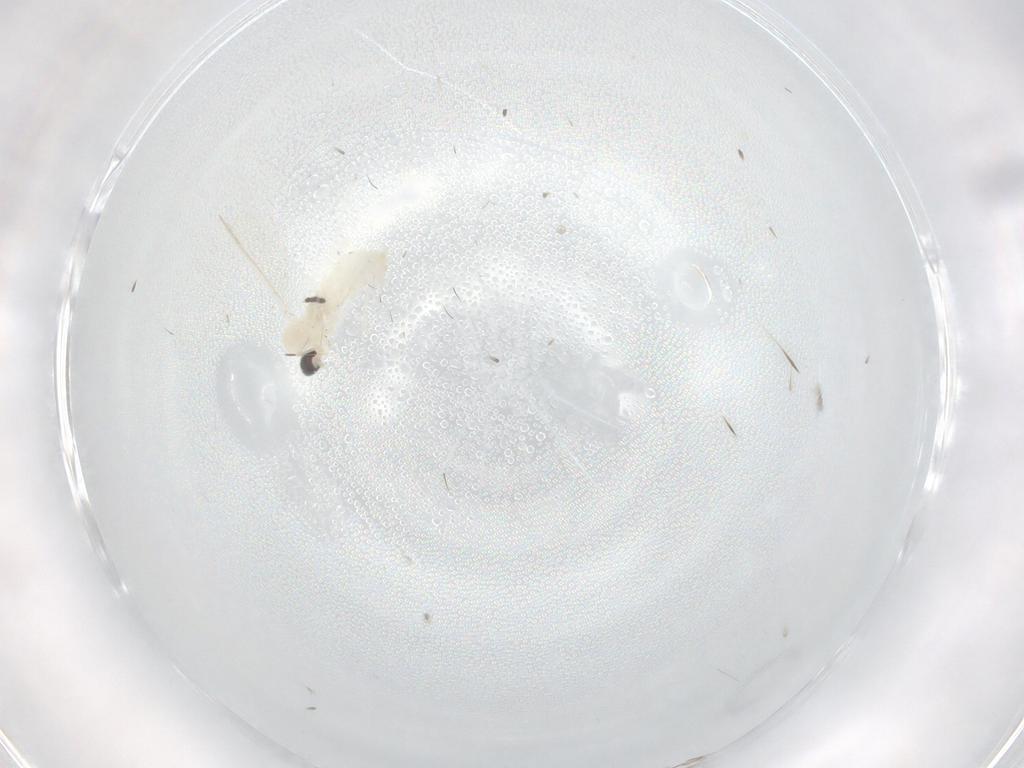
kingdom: Animalia
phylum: Arthropoda
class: Insecta
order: Diptera
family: Cecidomyiidae
